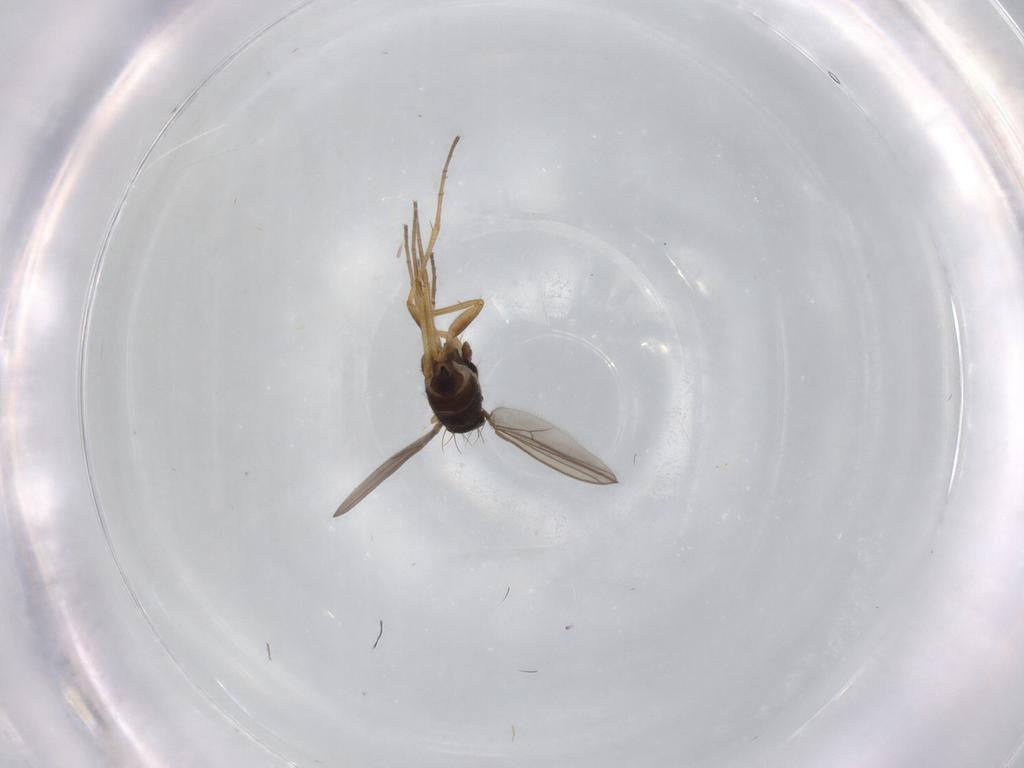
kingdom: Animalia
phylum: Arthropoda
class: Insecta
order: Diptera
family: Dolichopodidae
